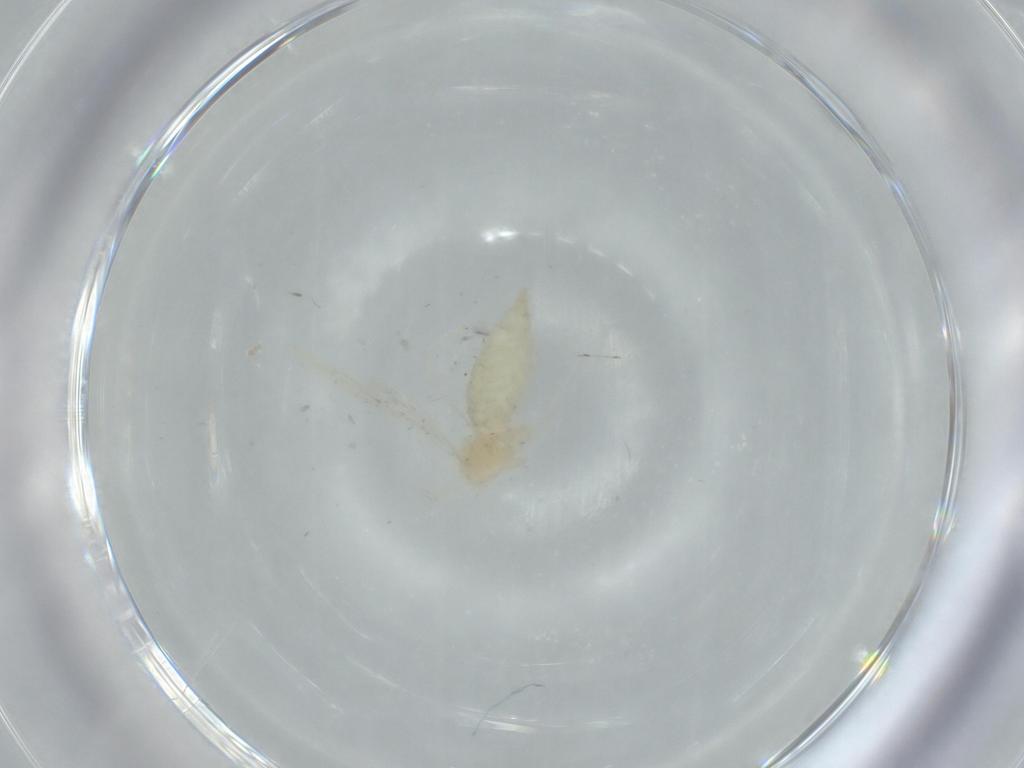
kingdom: Animalia
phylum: Arthropoda
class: Insecta
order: Diptera
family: Cecidomyiidae
